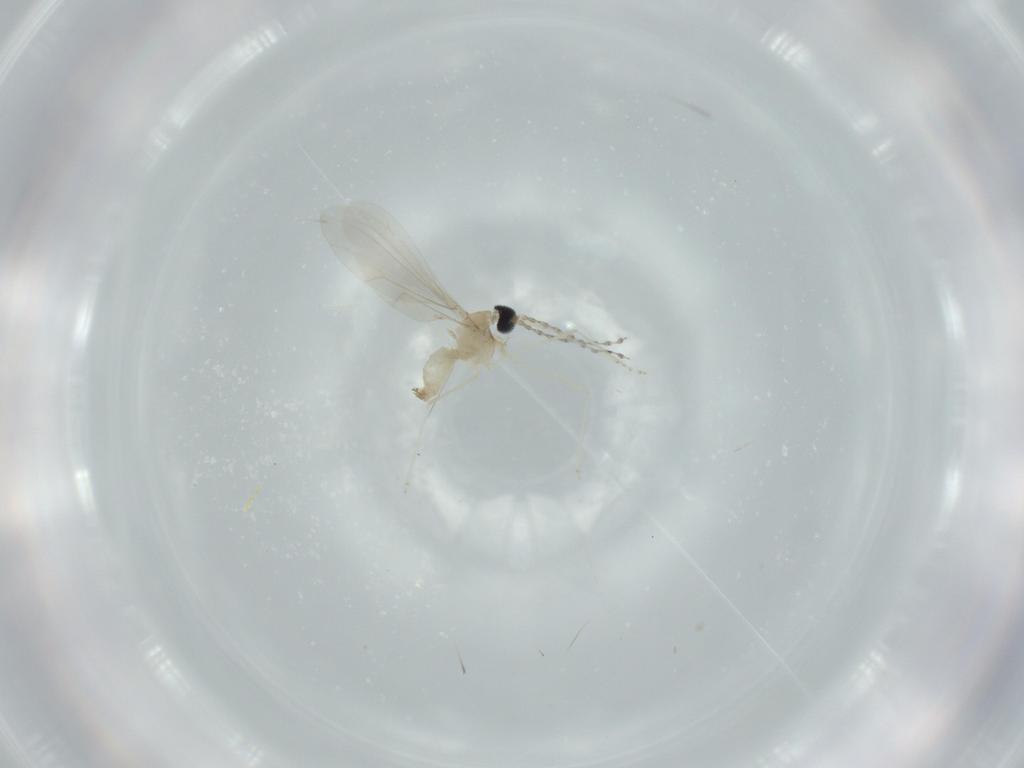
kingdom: Animalia
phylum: Arthropoda
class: Insecta
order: Diptera
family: Cecidomyiidae
